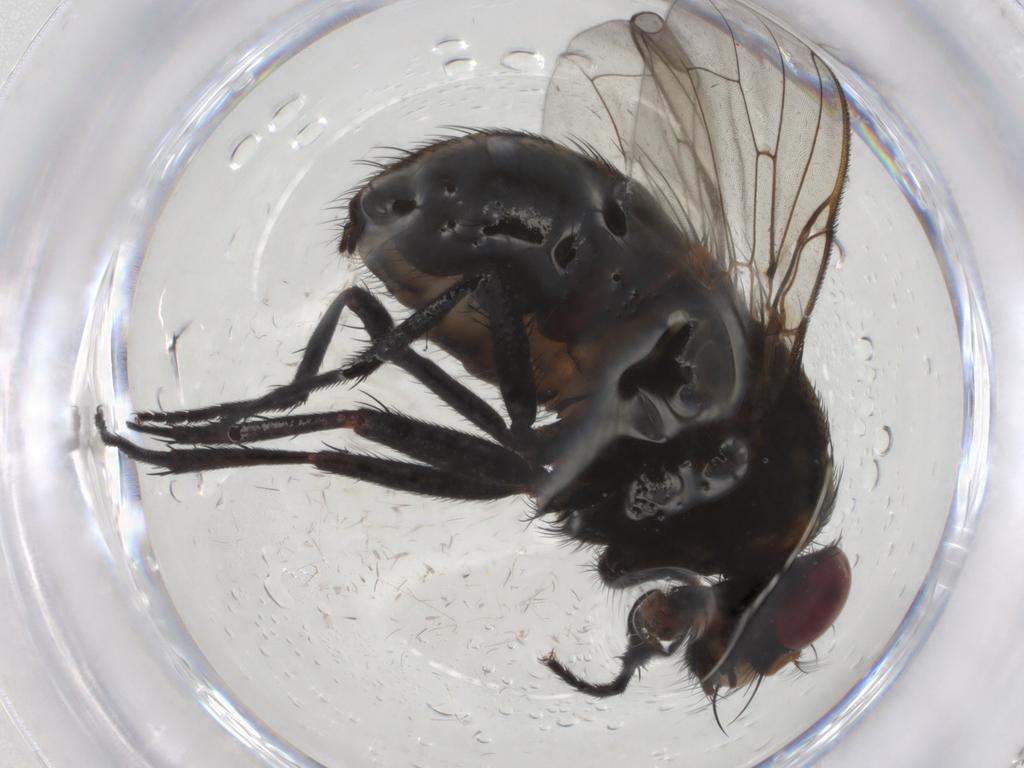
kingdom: Animalia
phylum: Arthropoda
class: Insecta
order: Diptera
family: Muscidae
